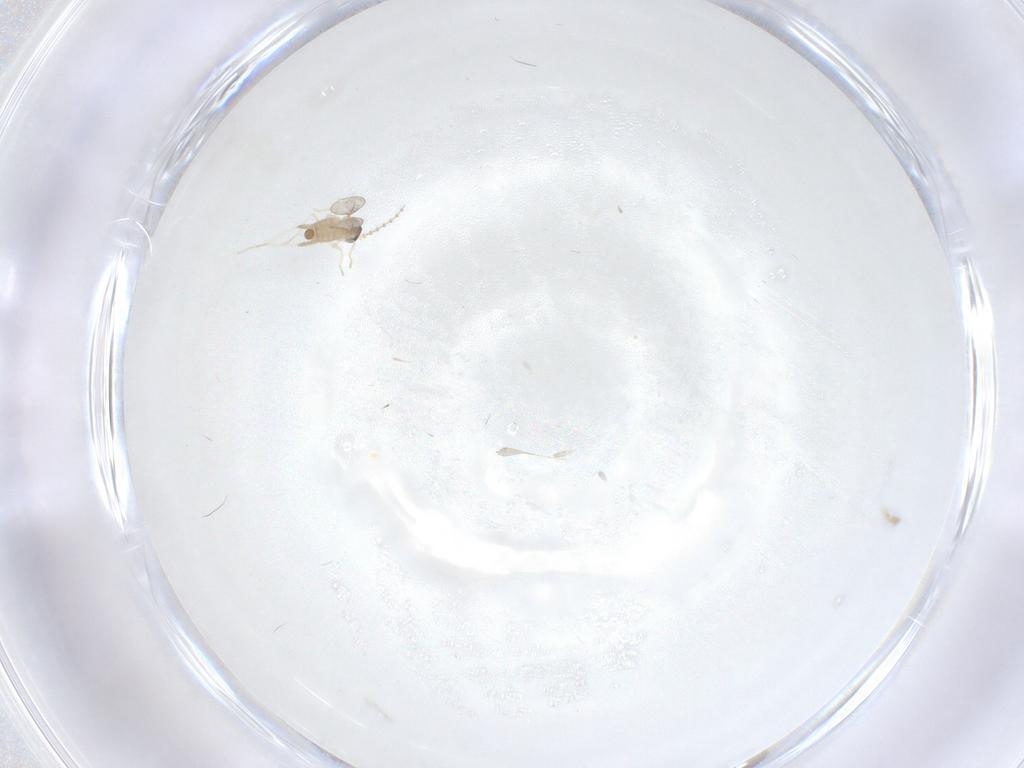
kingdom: Animalia
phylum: Arthropoda
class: Insecta
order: Diptera
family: Cecidomyiidae
